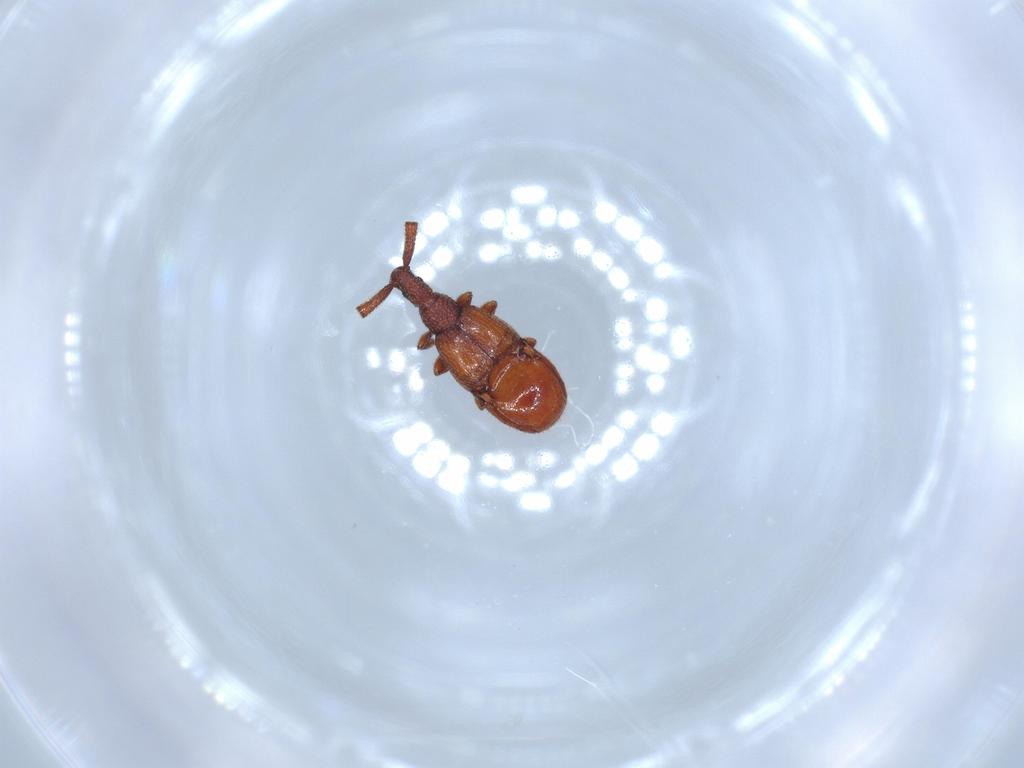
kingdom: Animalia
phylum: Arthropoda
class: Insecta
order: Coleoptera
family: Staphylinidae
